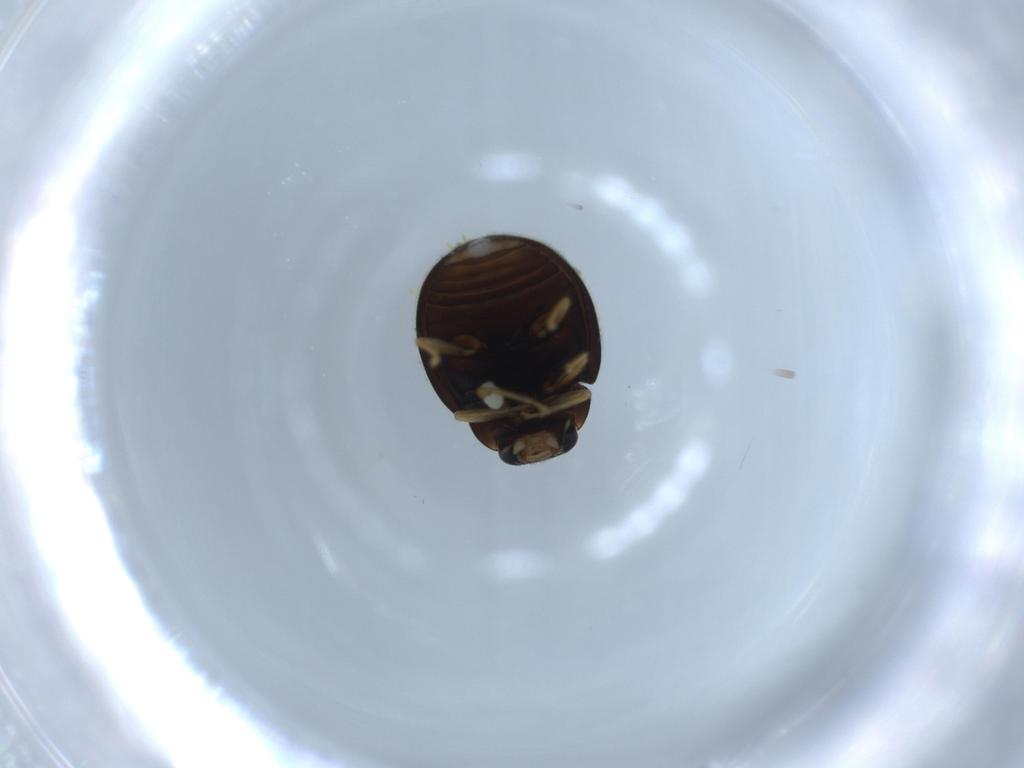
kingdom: Animalia
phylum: Arthropoda
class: Insecta
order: Coleoptera
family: Coccinellidae
